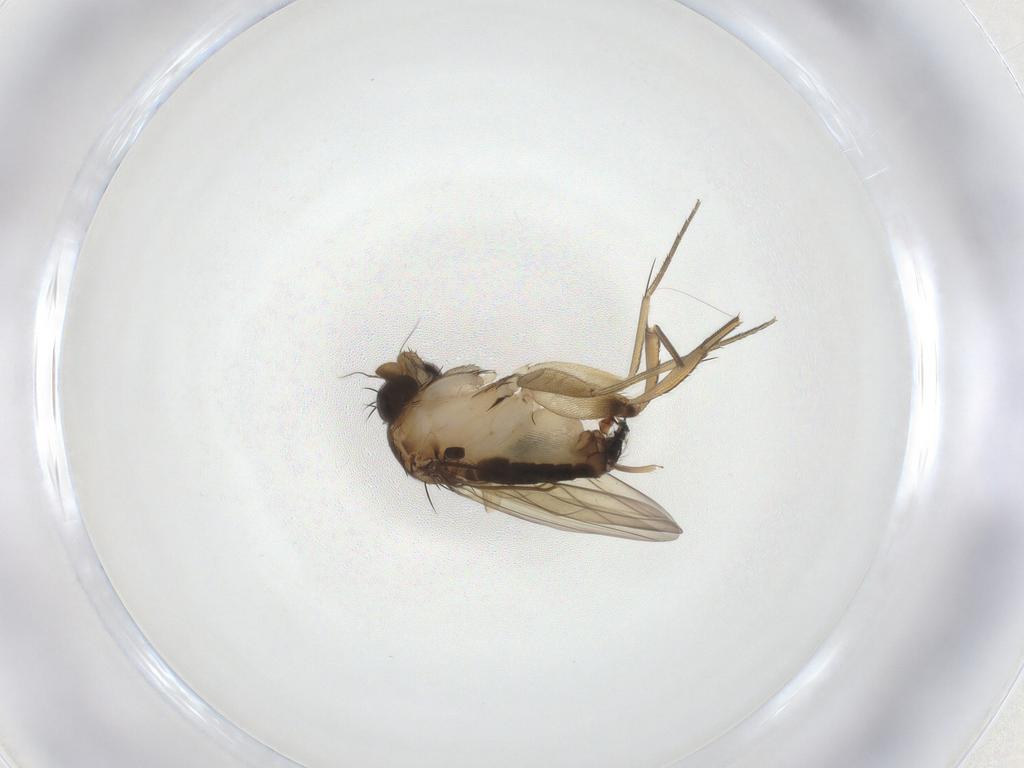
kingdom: Animalia
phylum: Arthropoda
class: Insecta
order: Diptera
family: Phoridae
